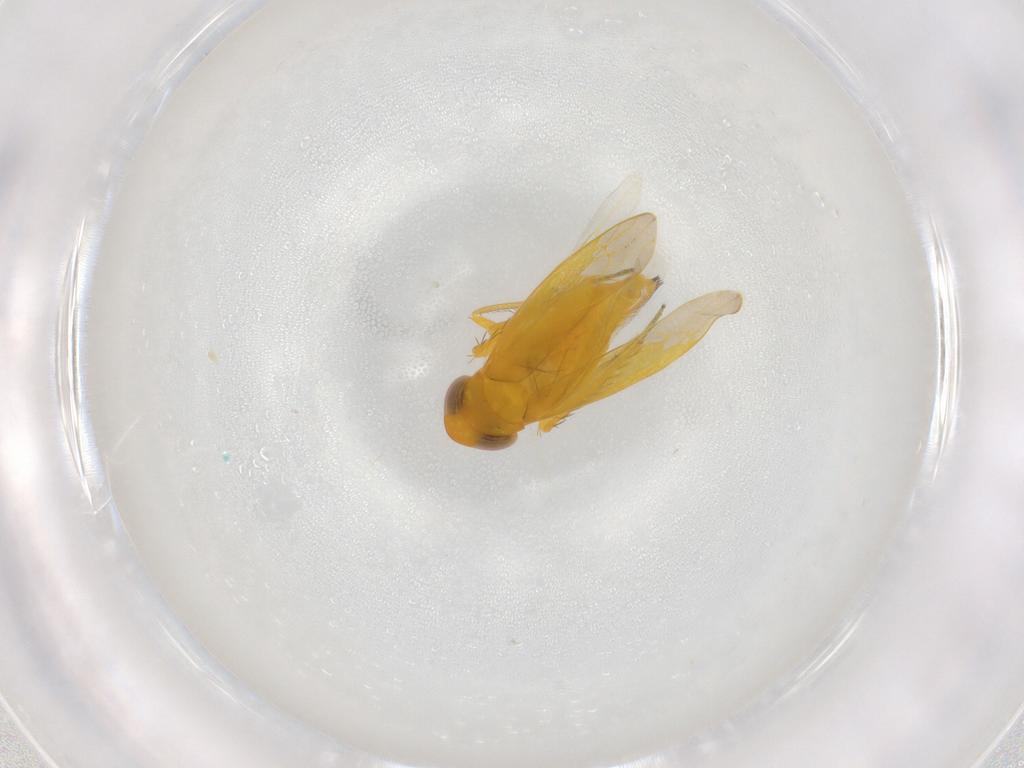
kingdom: Animalia
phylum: Arthropoda
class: Insecta
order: Hemiptera
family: Cicadellidae
